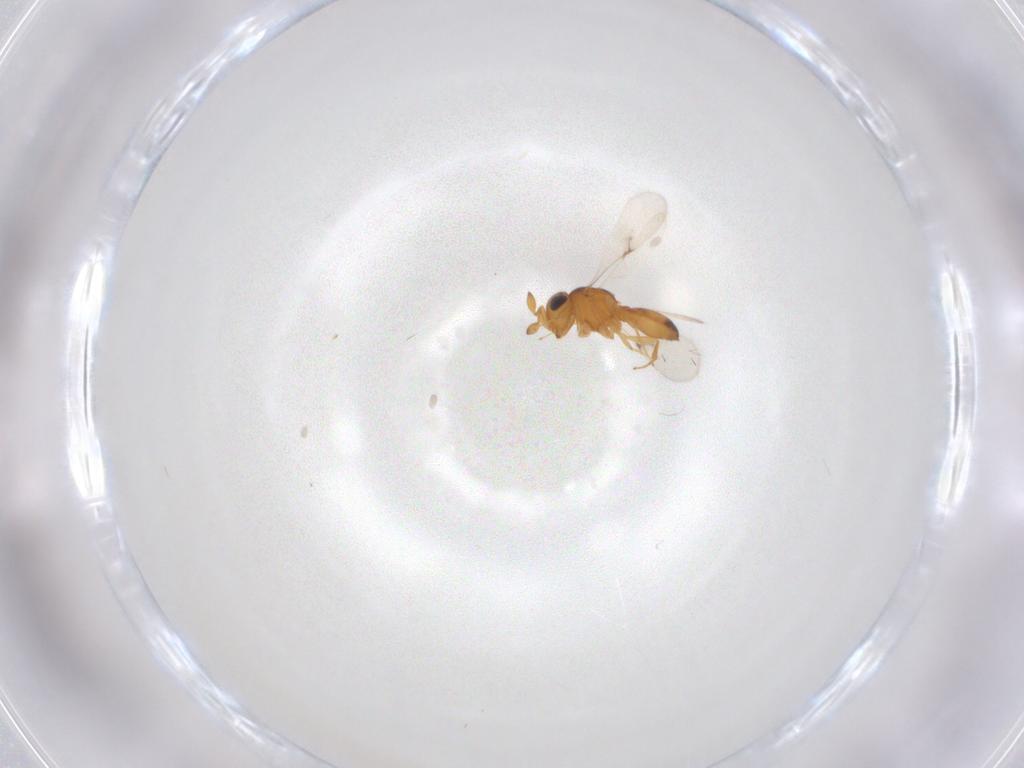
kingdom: Animalia
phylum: Arthropoda
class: Insecta
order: Hymenoptera
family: Scelionidae
